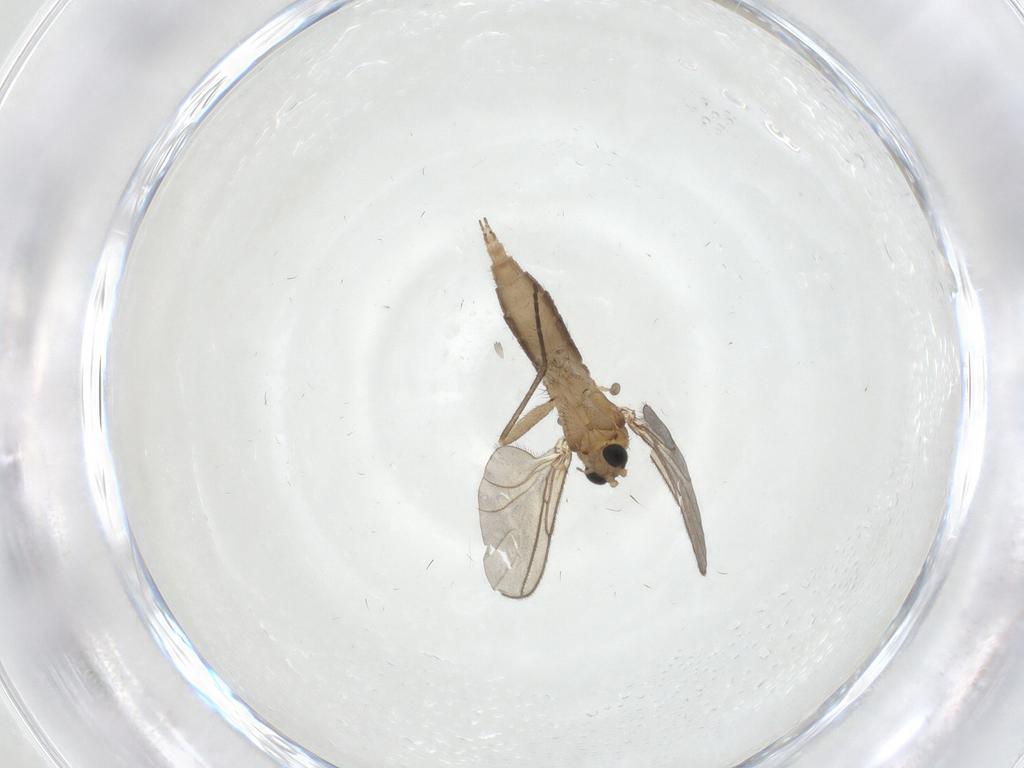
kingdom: Animalia
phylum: Arthropoda
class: Insecta
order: Diptera
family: Sciaridae
